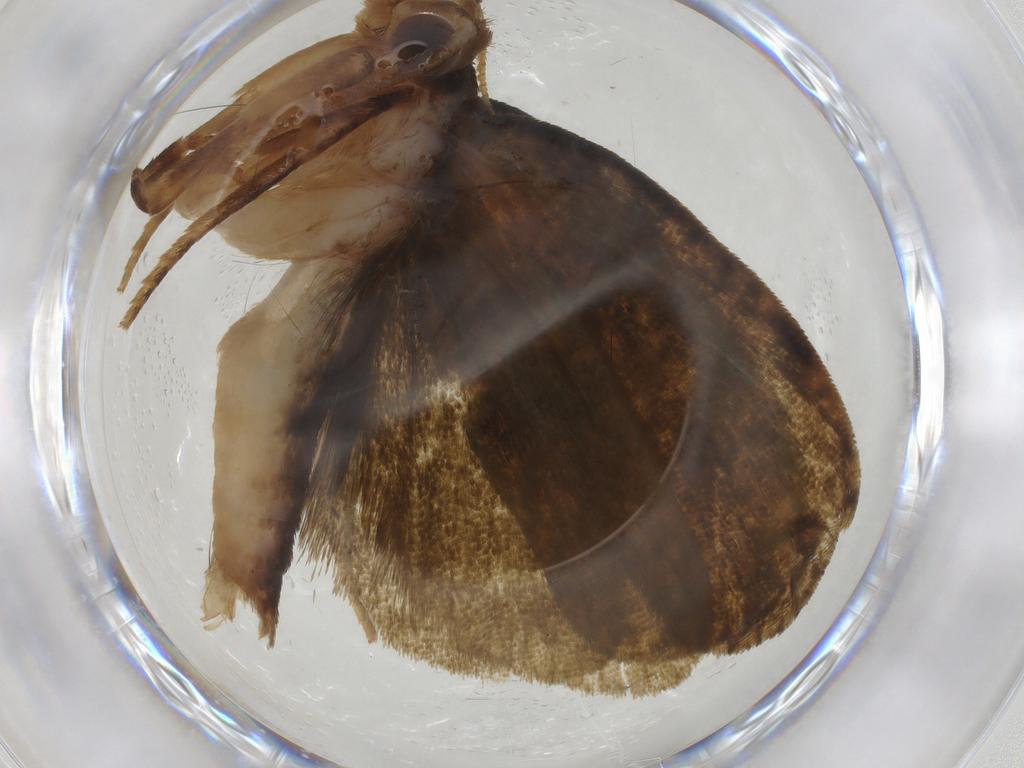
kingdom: Animalia
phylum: Arthropoda
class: Insecta
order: Lepidoptera
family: Geometridae
